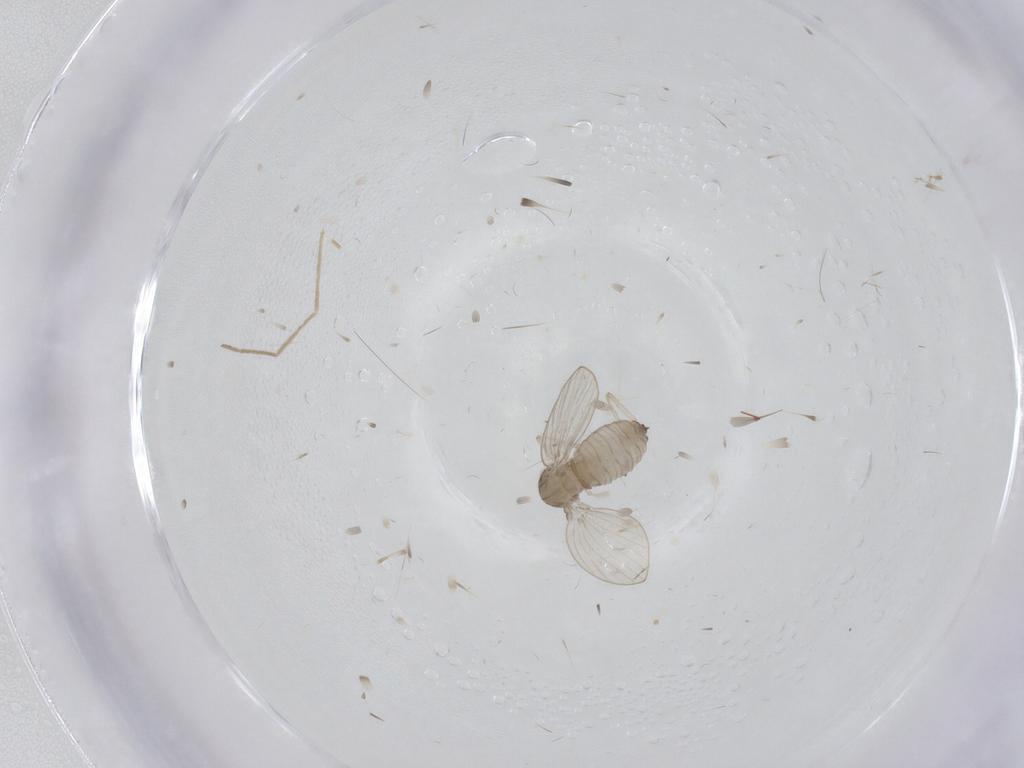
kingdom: Animalia
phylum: Arthropoda
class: Insecta
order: Diptera
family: Psychodidae
